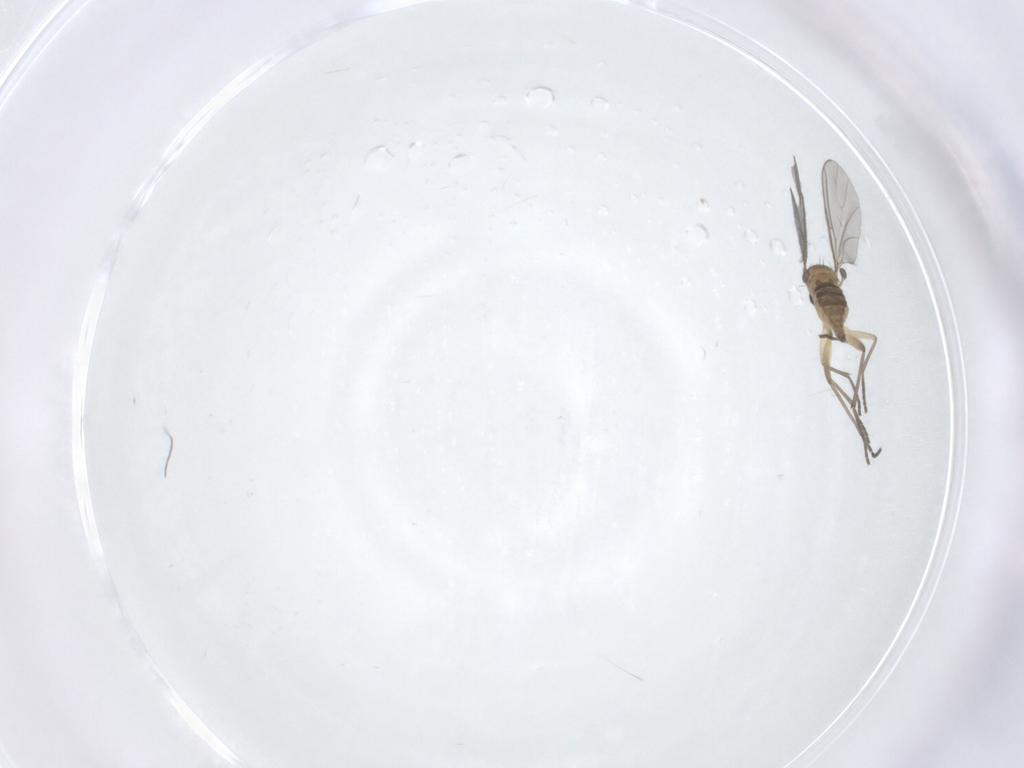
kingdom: Animalia
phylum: Arthropoda
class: Insecta
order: Diptera
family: Sciaridae
